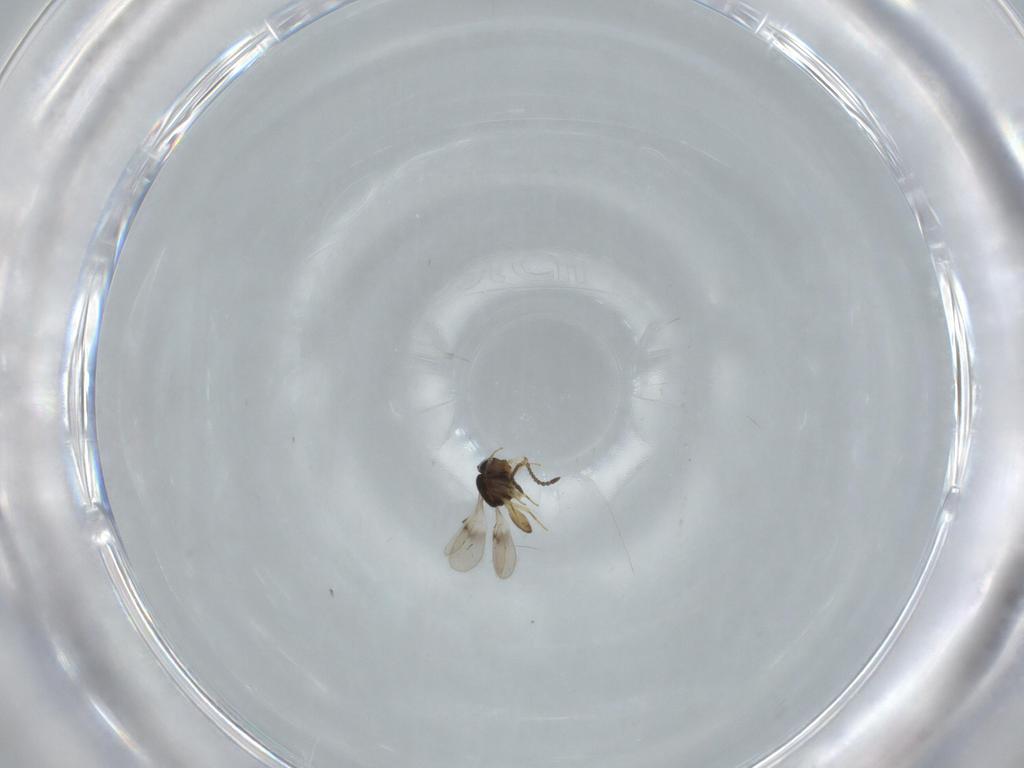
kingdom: Animalia
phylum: Arthropoda
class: Insecta
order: Hymenoptera
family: Scelionidae
